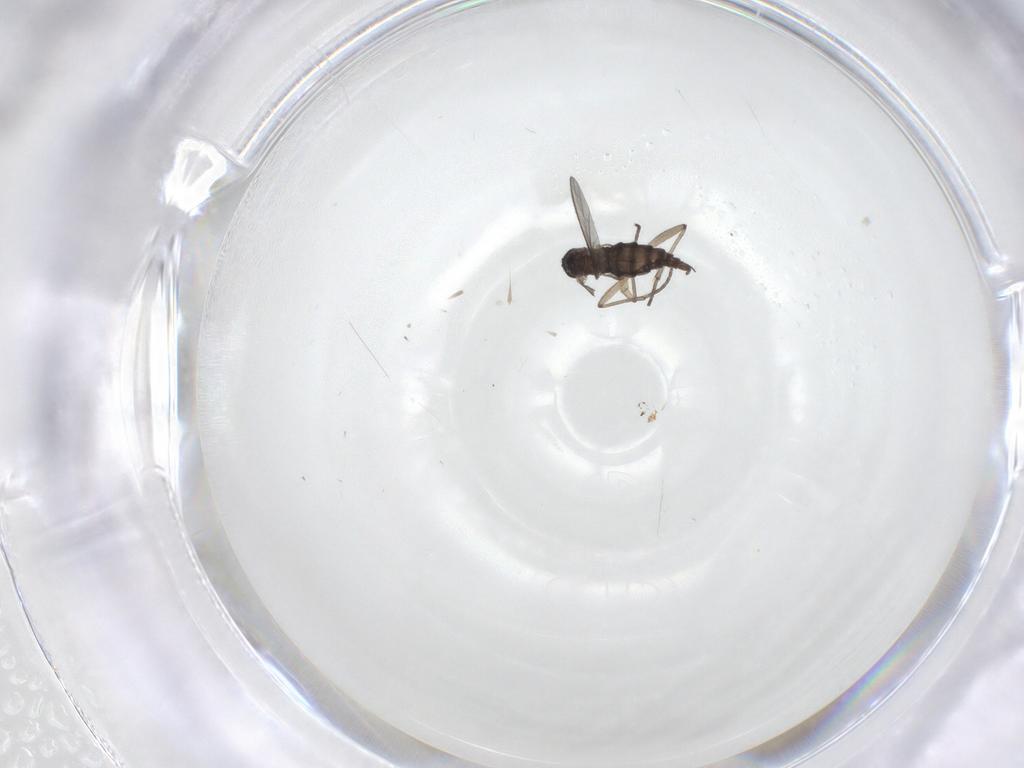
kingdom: Animalia
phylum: Arthropoda
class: Insecta
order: Diptera
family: Sciaridae
